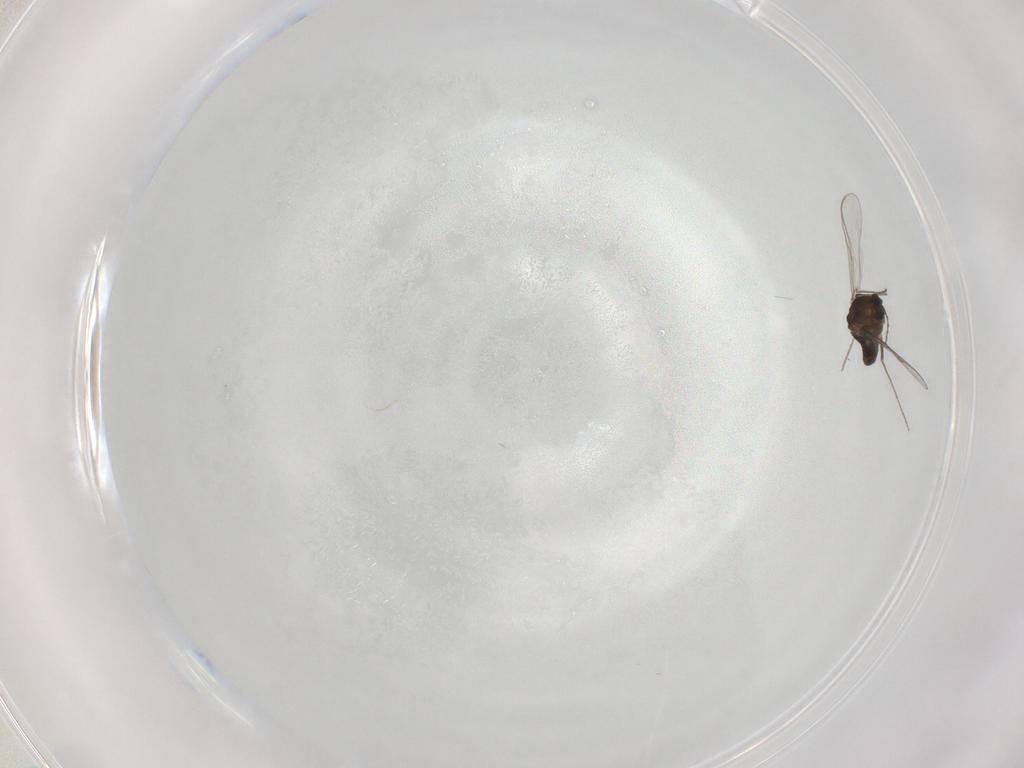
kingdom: Animalia
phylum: Arthropoda
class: Insecta
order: Diptera
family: Chironomidae
